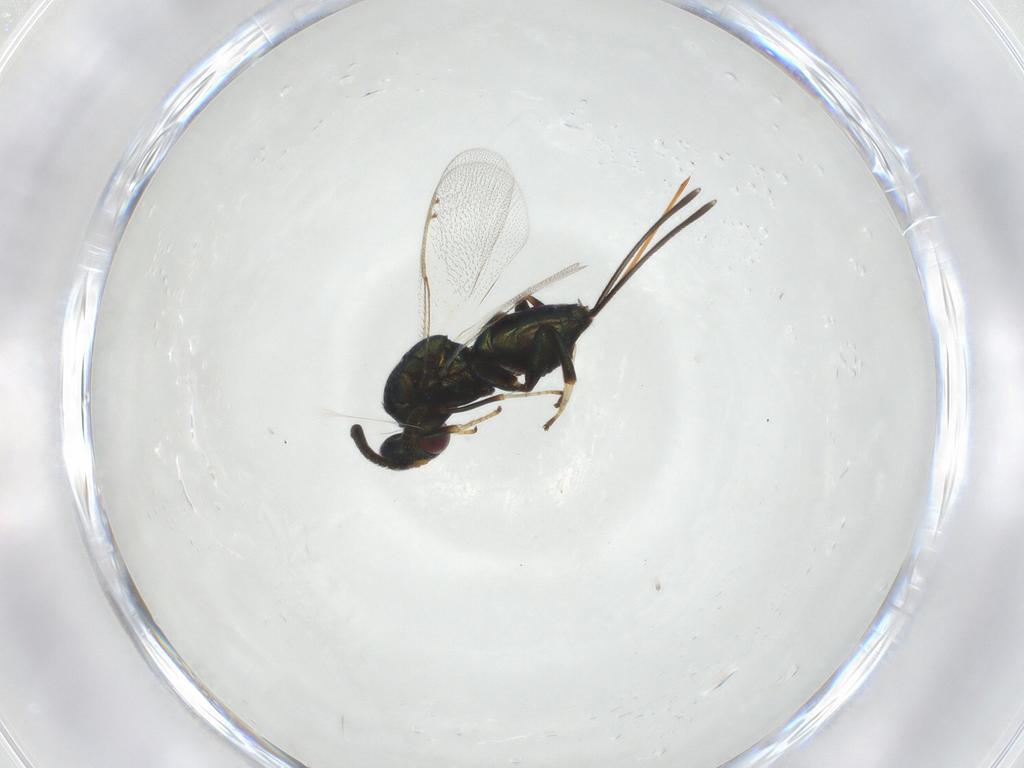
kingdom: Animalia
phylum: Arthropoda
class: Insecta
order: Hymenoptera
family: Torymidae
